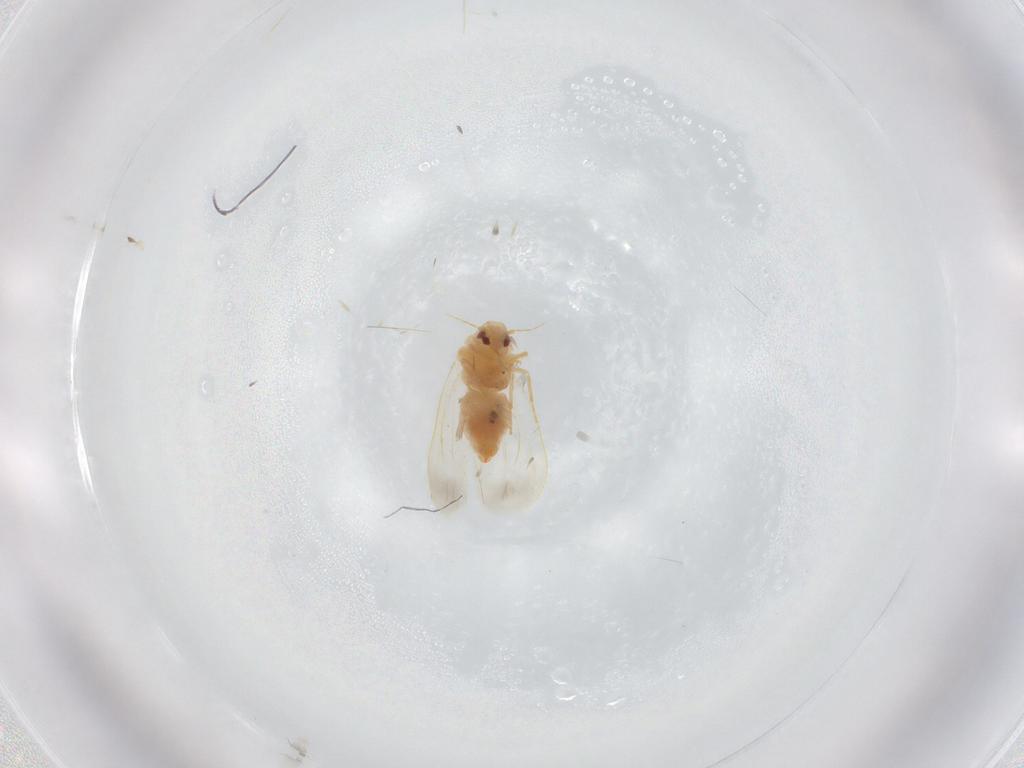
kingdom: Animalia
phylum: Arthropoda
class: Insecta
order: Hemiptera
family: Aleyrodidae
